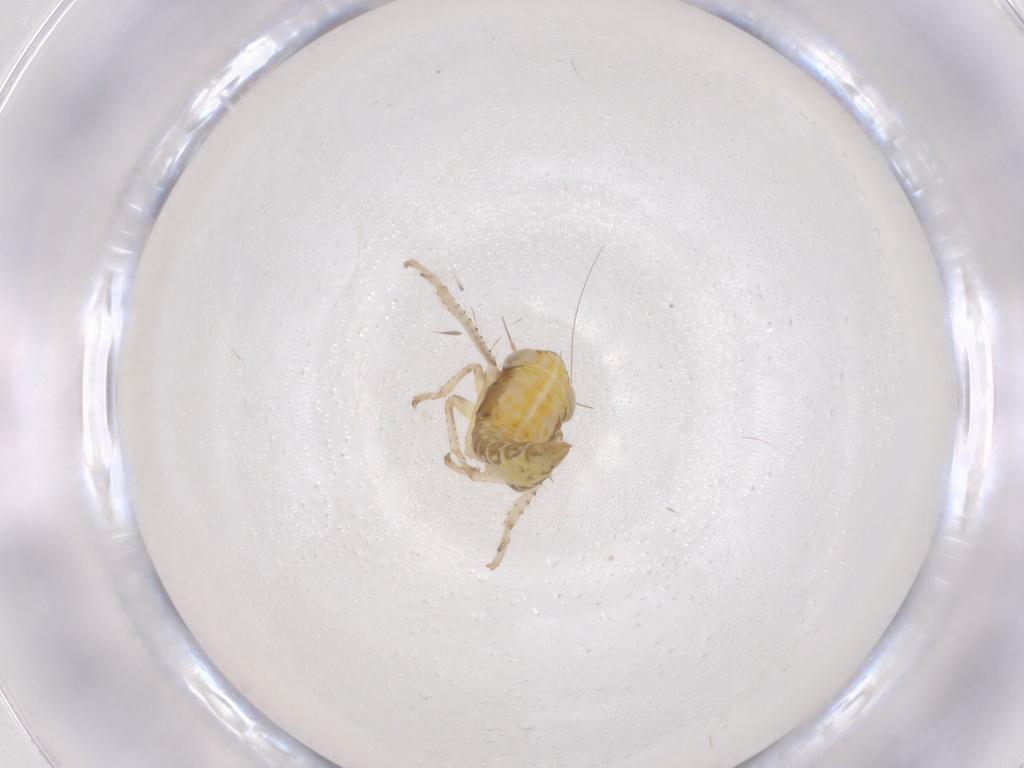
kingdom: Animalia
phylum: Arthropoda
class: Insecta
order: Hemiptera
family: Cicadellidae
